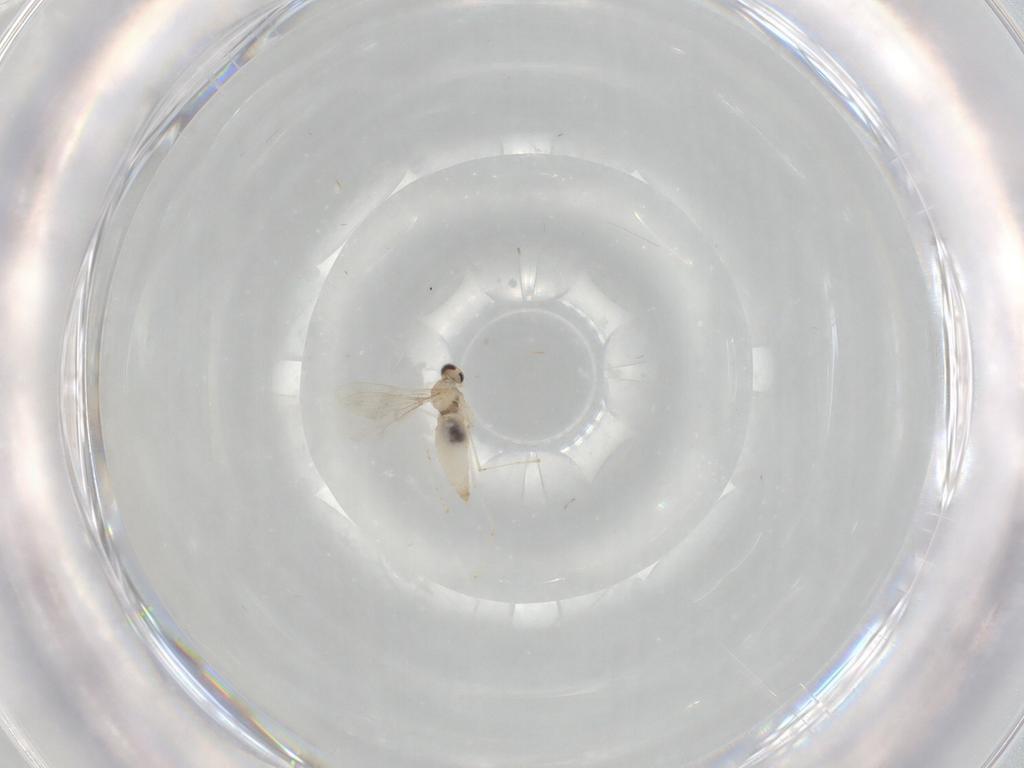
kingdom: Animalia
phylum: Arthropoda
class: Insecta
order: Diptera
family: Cecidomyiidae
